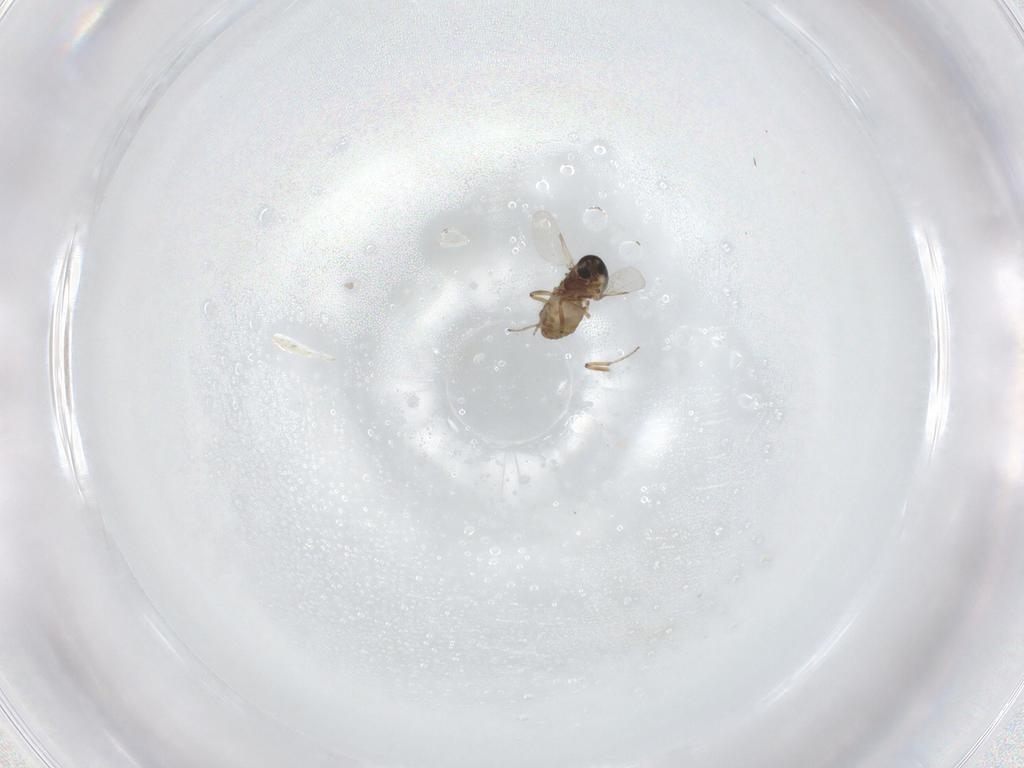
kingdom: Animalia
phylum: Arthropoda
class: Insecta
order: Diptera
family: Ceratopogonidae
